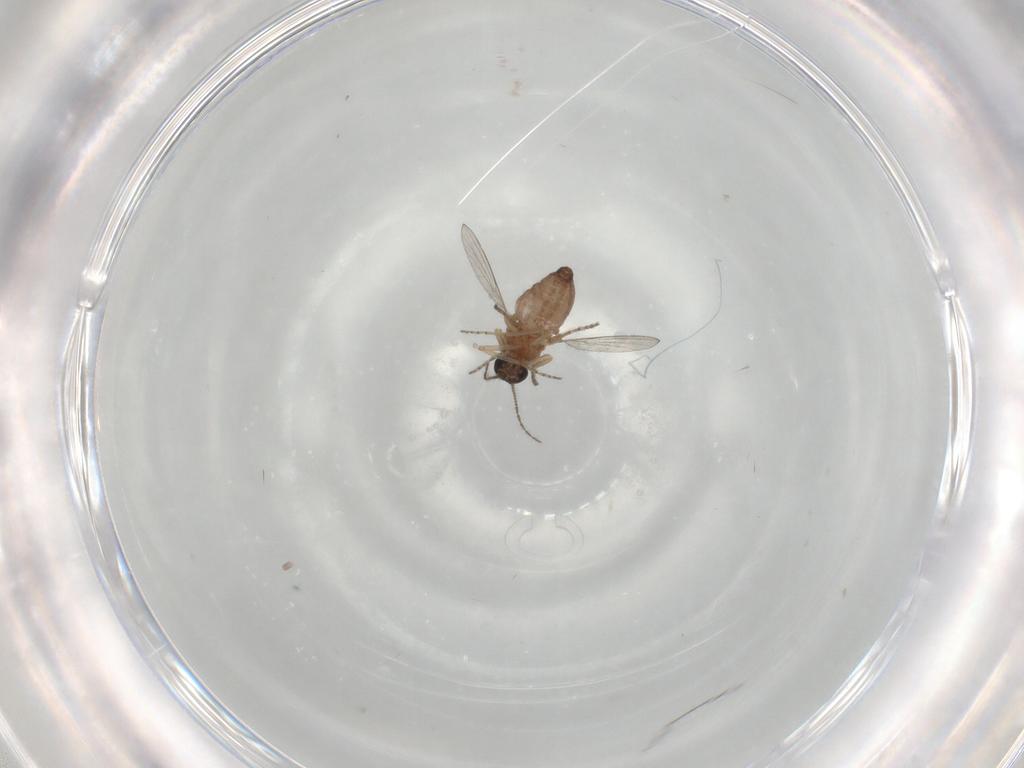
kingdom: Animalia
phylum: Arthropoda
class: Insecta
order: Diptera
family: Ceratopogonidae
